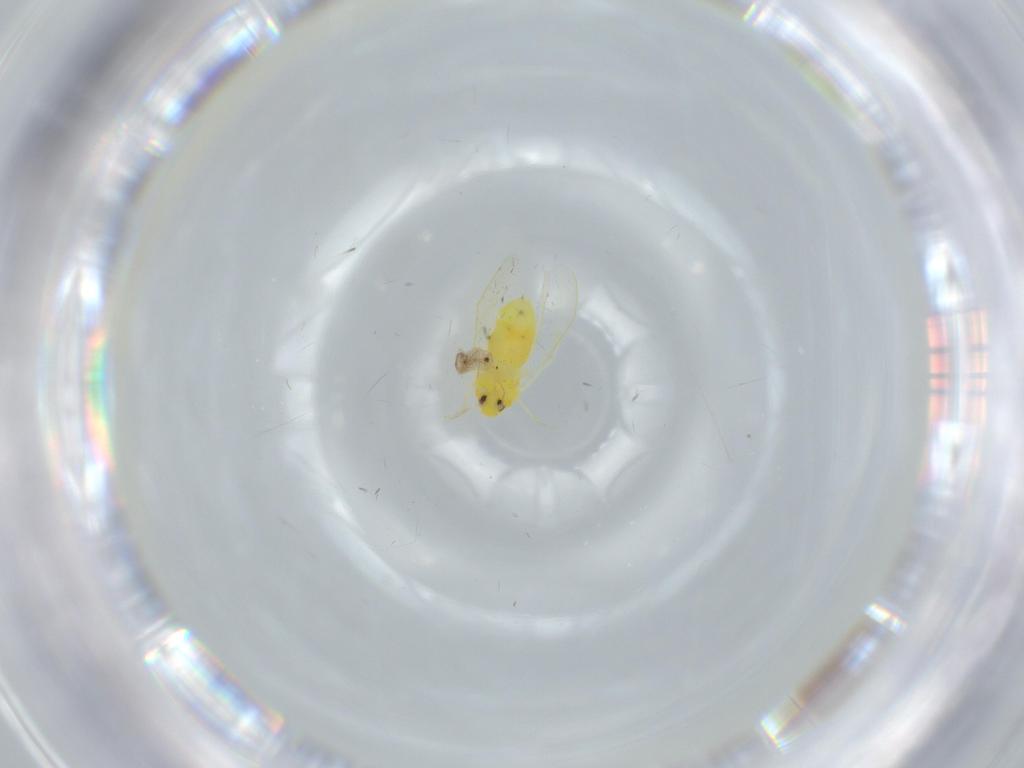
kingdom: Animalia
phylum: Arthropoda
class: Insecta
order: Hemiptera
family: Aleyrodidae
